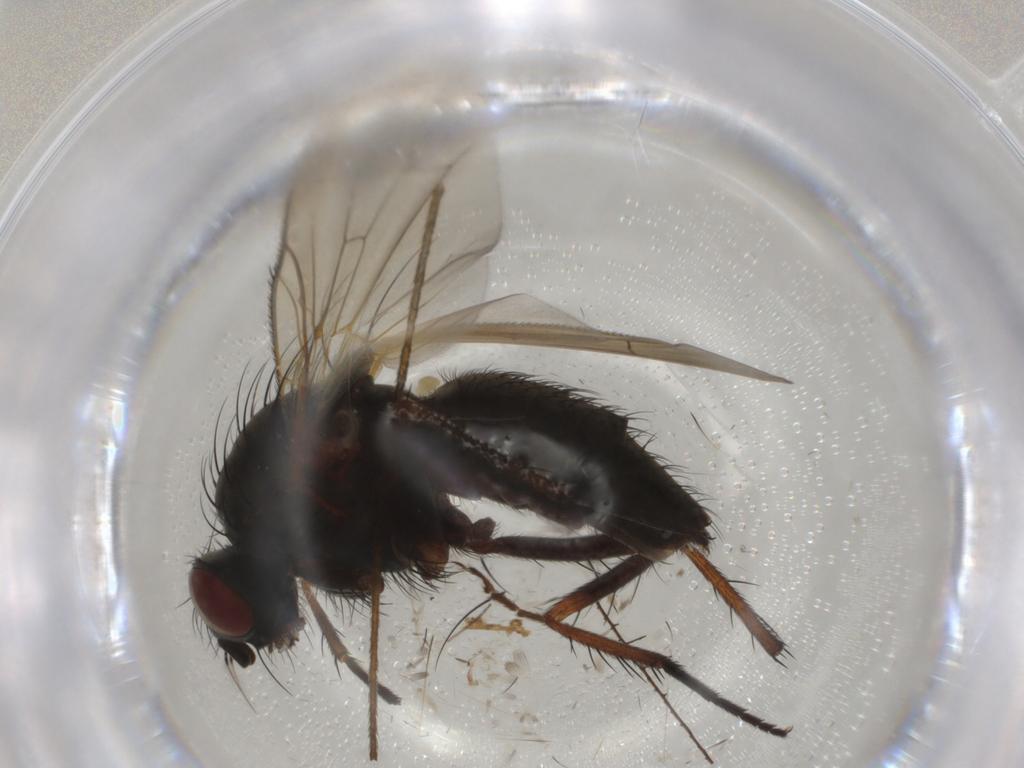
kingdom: Animalia
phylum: Arthropoda
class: Insecta
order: Diptera
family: Anthomyiidae
